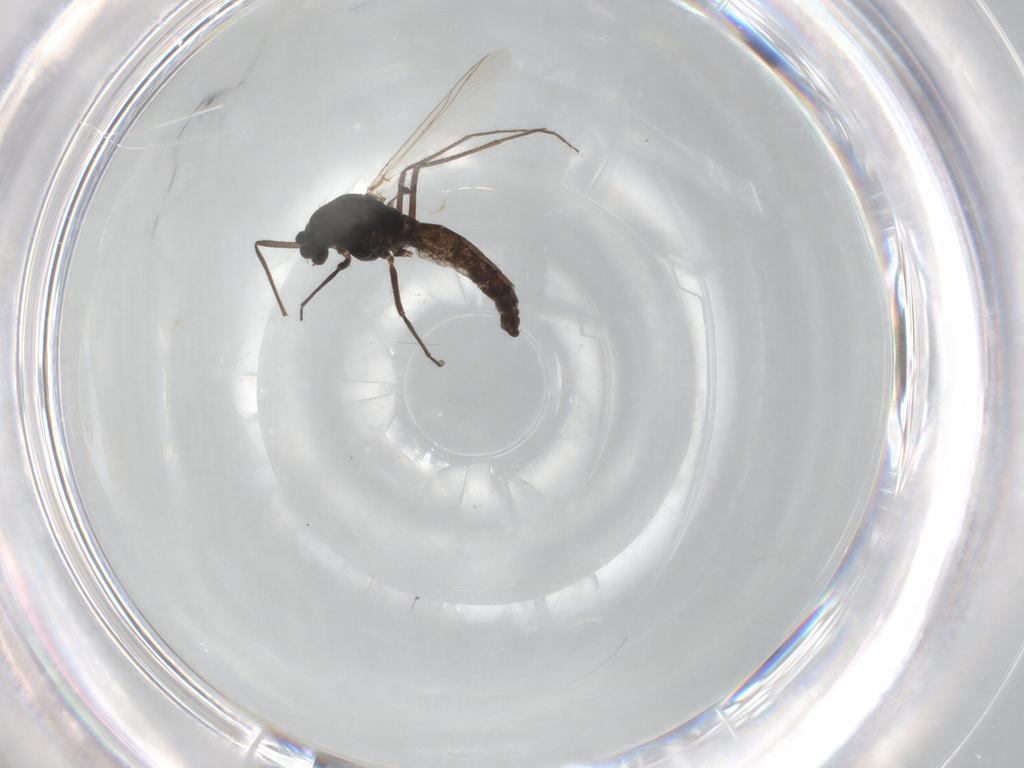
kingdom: Animalia
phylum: Arthropoda
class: Insecta
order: Diptera
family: Chironomidae
